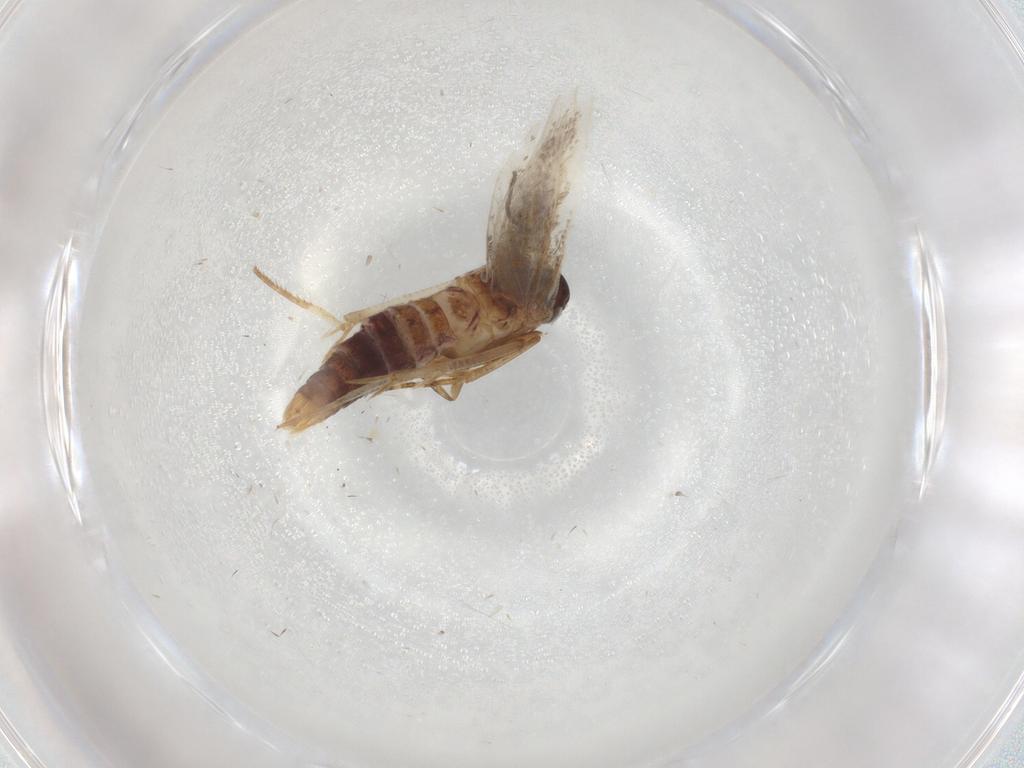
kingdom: Animalia
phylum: Arthropoda
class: Insecta
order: Lepidoptera
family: Gelechiidae
